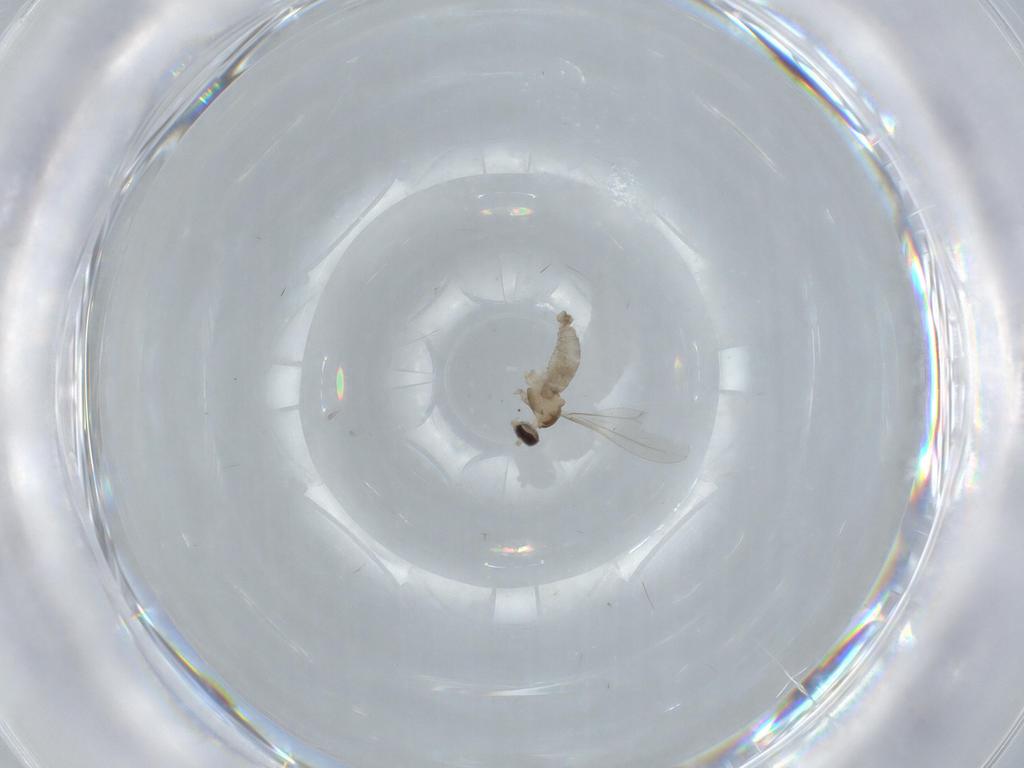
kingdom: Animalia
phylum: Arthropoda
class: Insecta
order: Diptera
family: Cecidomyiidae
